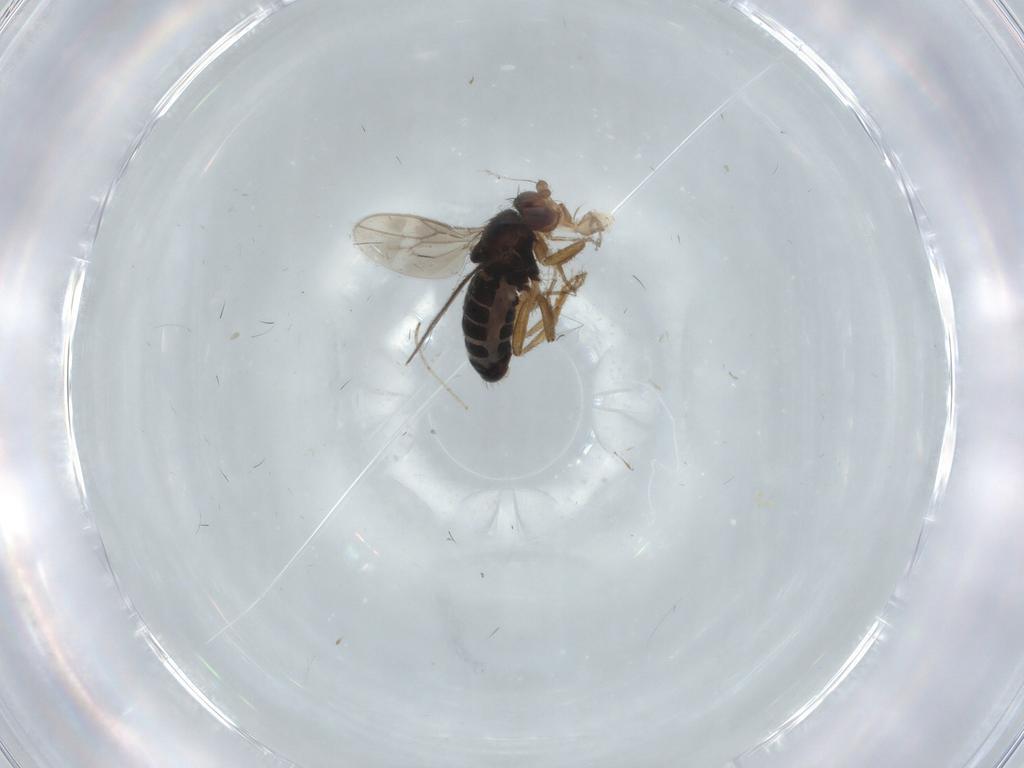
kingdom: Animalia
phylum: Arthropoda
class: Insecta
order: Diptera
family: Sphaeroceridae
